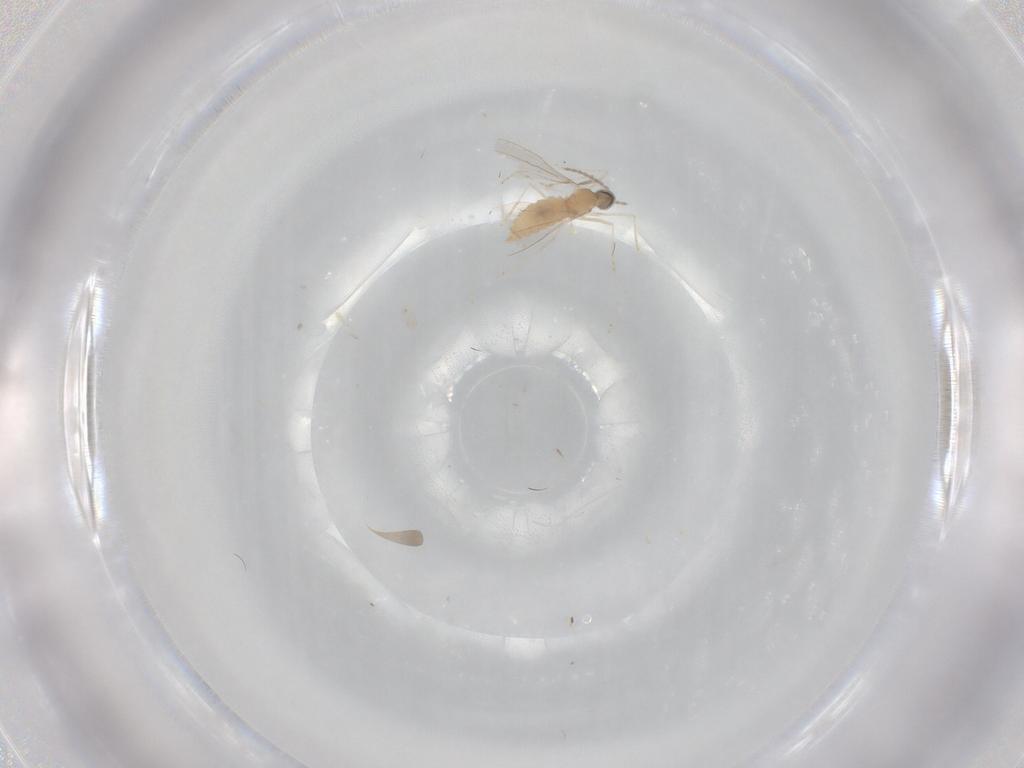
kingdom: Animalia
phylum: Arthropoda
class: Insecta
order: Diptera
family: Cecidomyiidae
